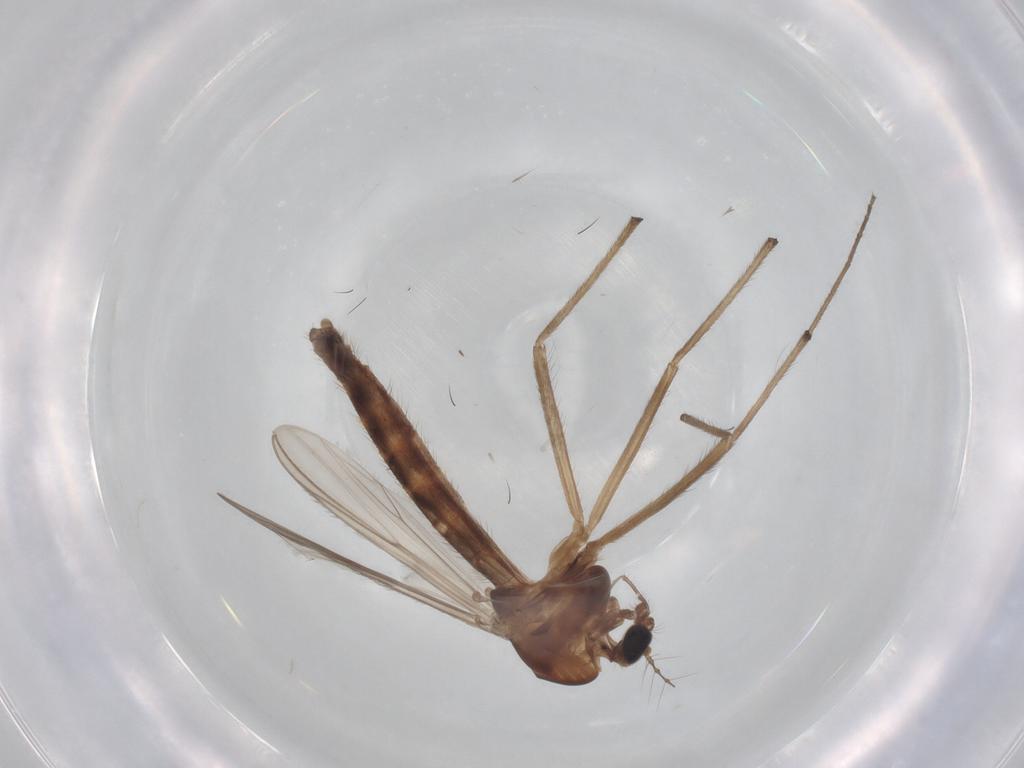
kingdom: Animalia
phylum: Arthropoda
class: Insecta
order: Diptera
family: Chironomidae
